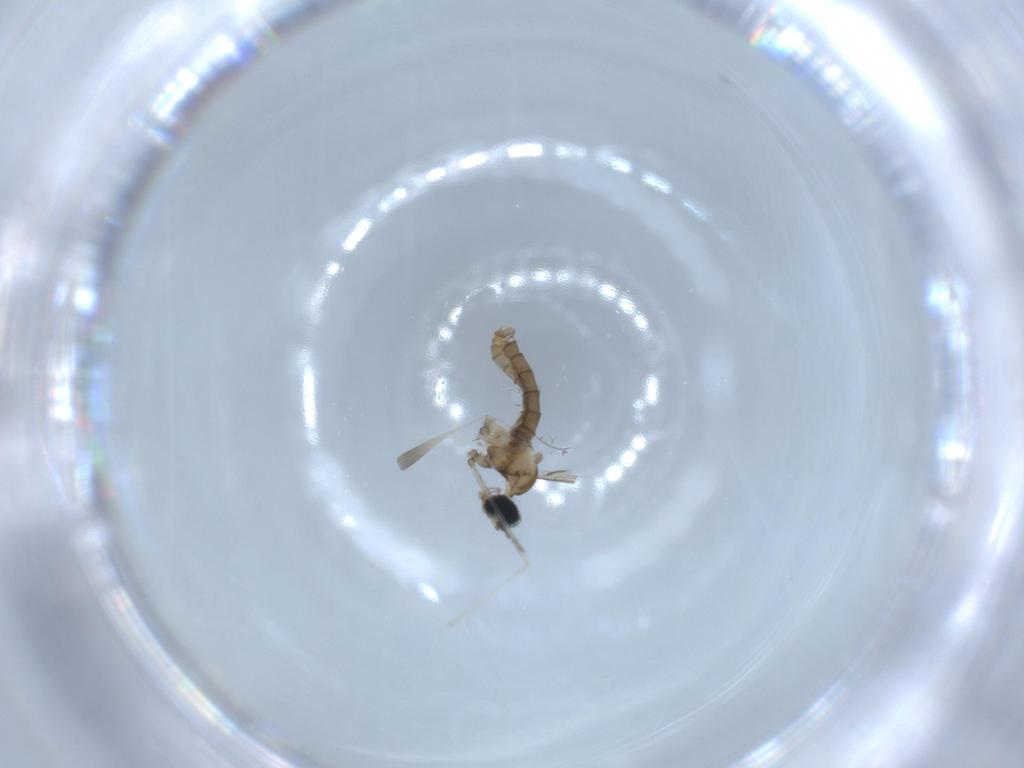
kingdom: Animalia
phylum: Arthropoda
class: Insecta
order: Diptera
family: Cecidomyiidae
